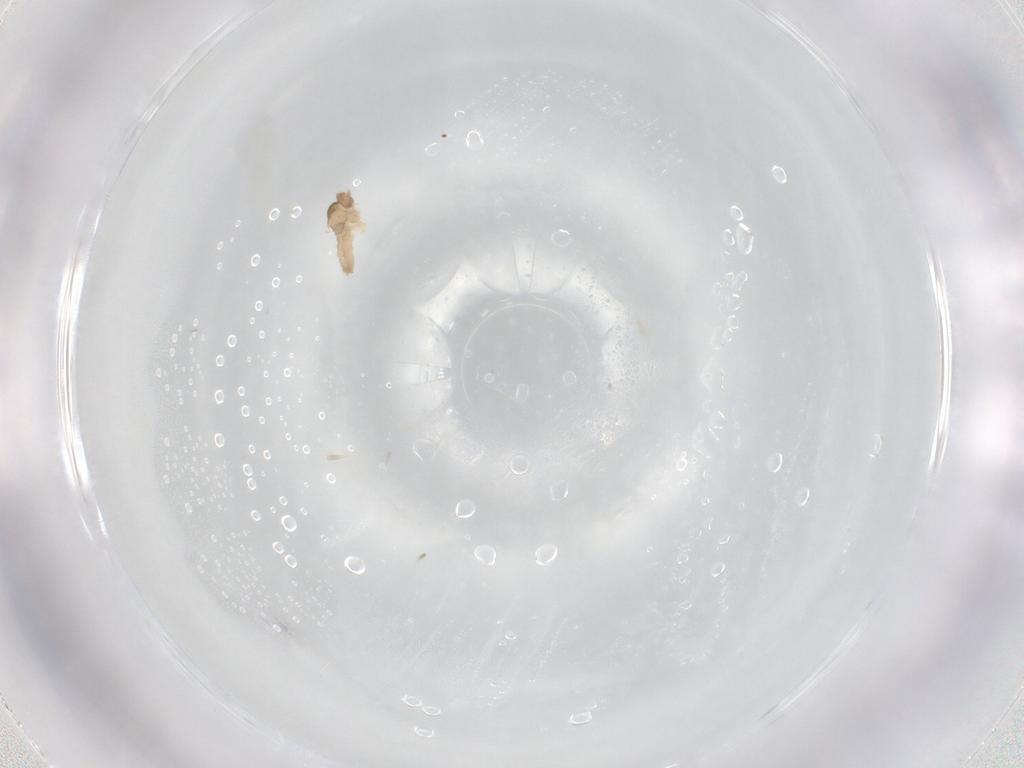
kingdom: Animalia
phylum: Arthropoda
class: Insecta
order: Diptera
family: Cecidomyiidae
